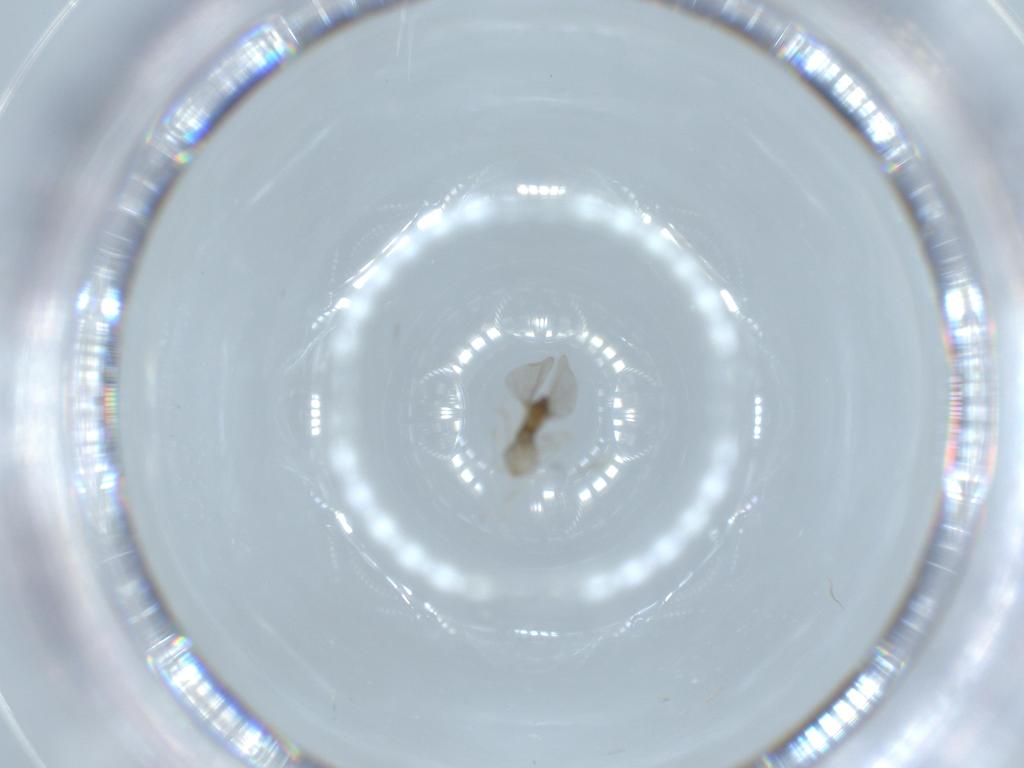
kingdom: Animalia
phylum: Arthropoda
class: Insecta
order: Diptera
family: Cecidomyiidae
